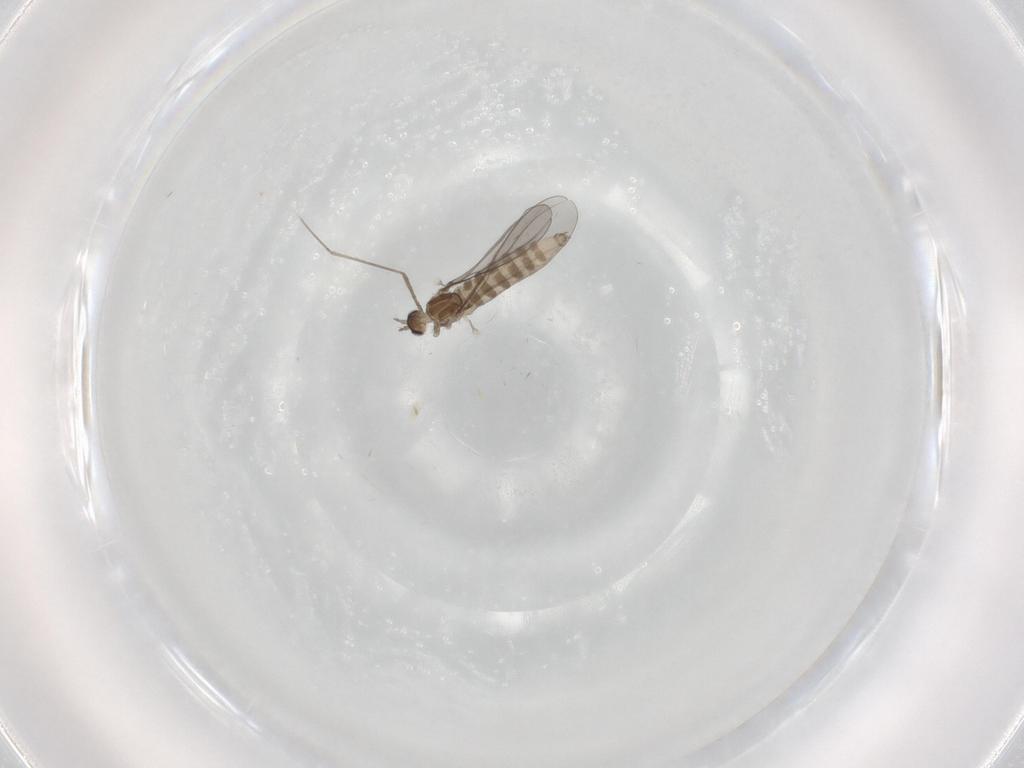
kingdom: Animalia
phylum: Arthropoda
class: Insecta
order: Diptera
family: Cecidomyiidae
